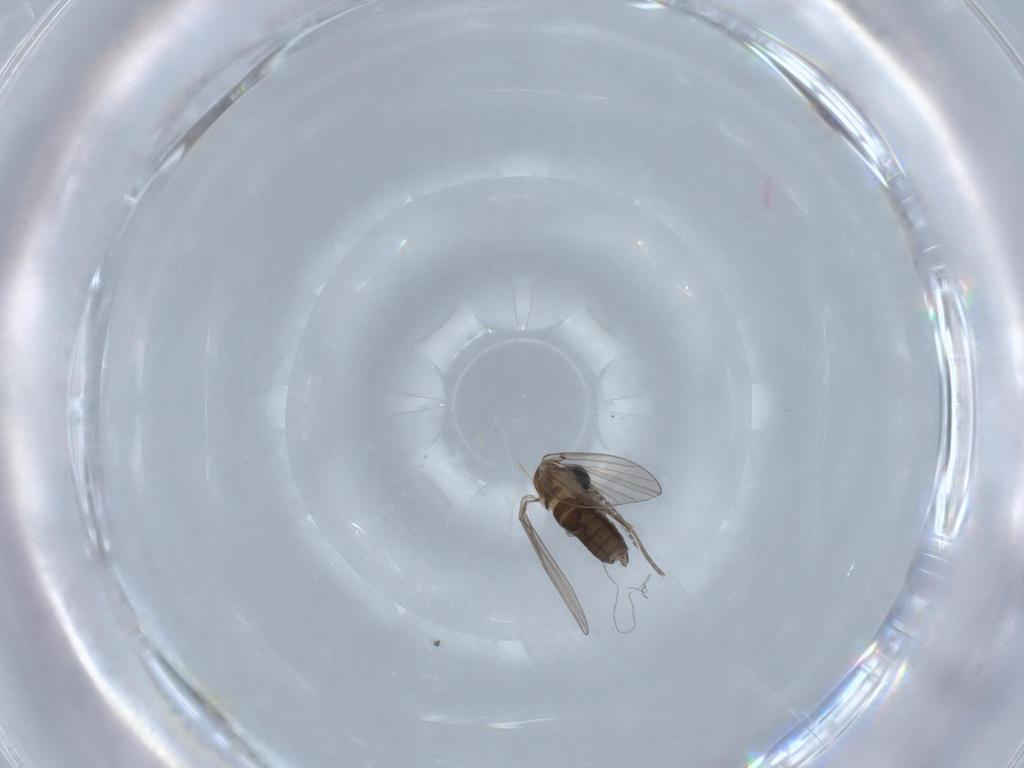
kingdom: Animalia
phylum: Arthropoda
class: Insecta
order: Diptera
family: Psychodidae
